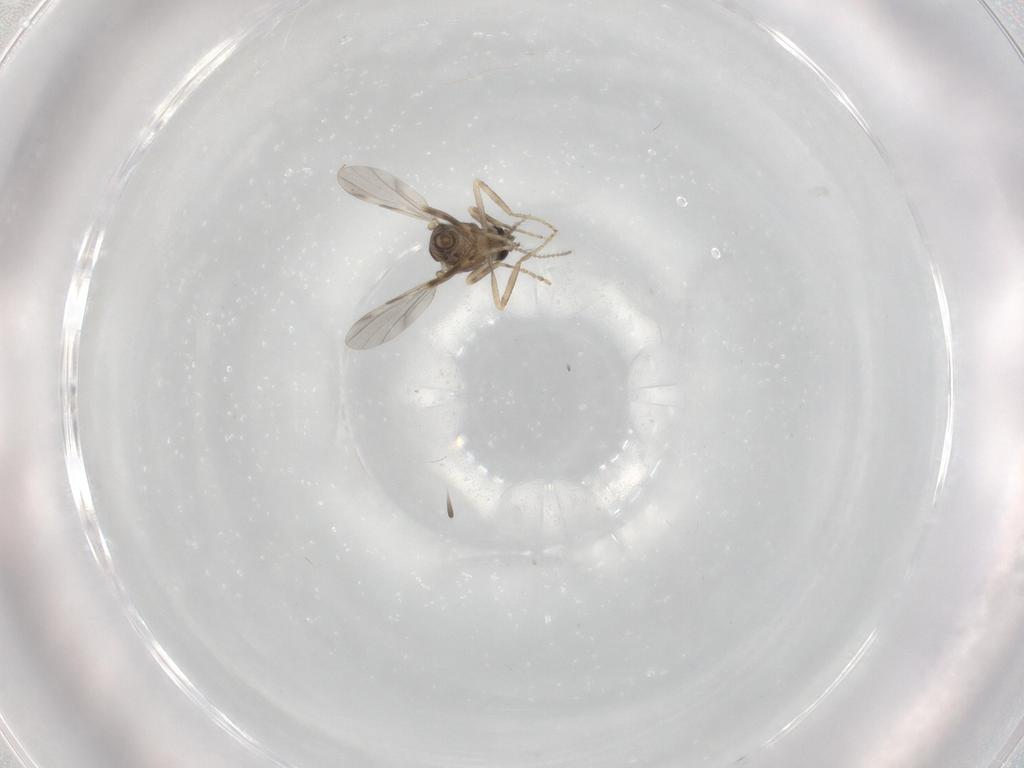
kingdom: Animalia
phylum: Arthropoda
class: Insecta
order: Diptera
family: Ceratopogonidae
